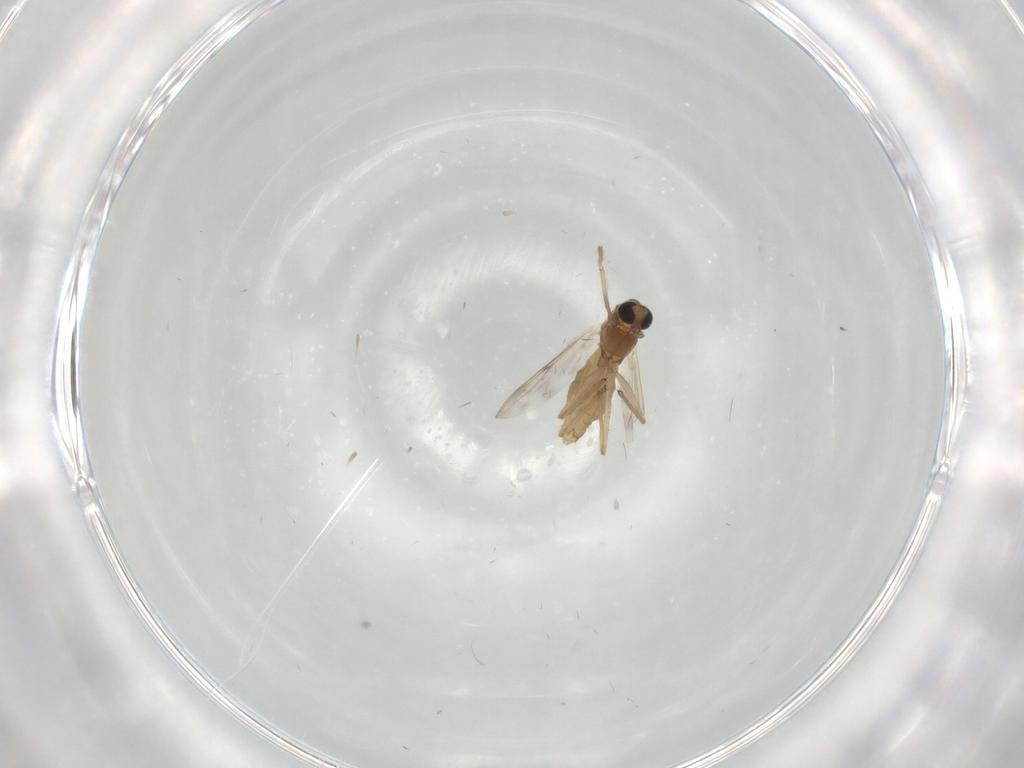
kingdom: Animalia
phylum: Arthropoda
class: Insecta
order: Diptera
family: Chironomidae
